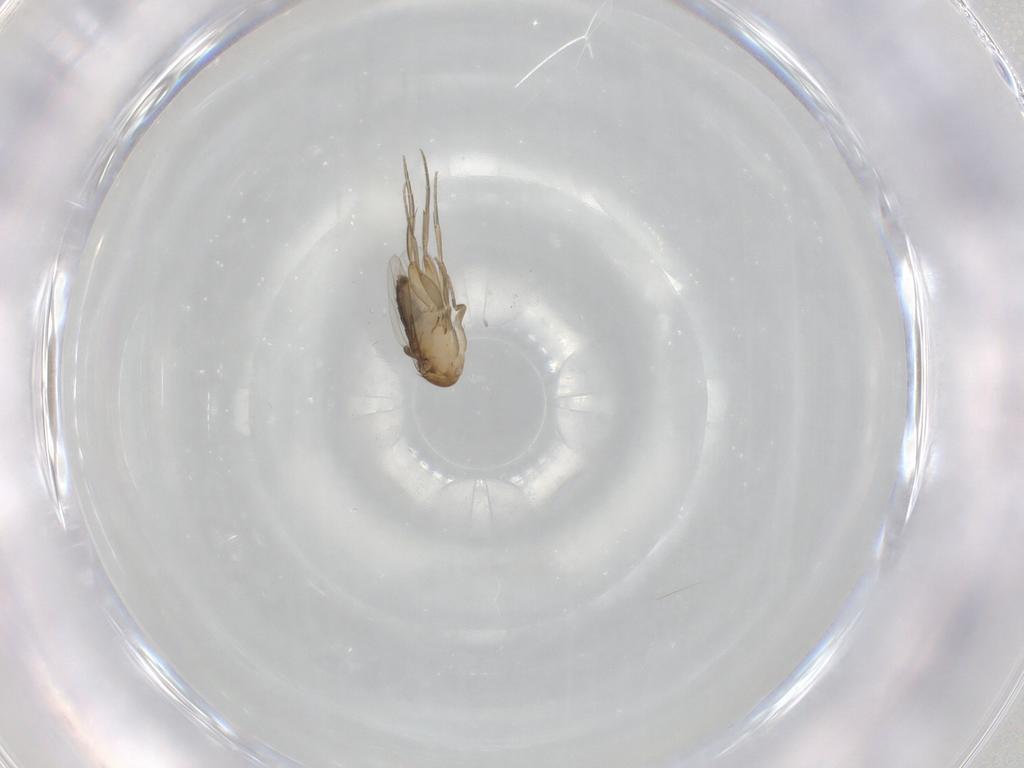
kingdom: Animalia
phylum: Arthropoda
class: Insecta
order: Diptera
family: Phoridae
